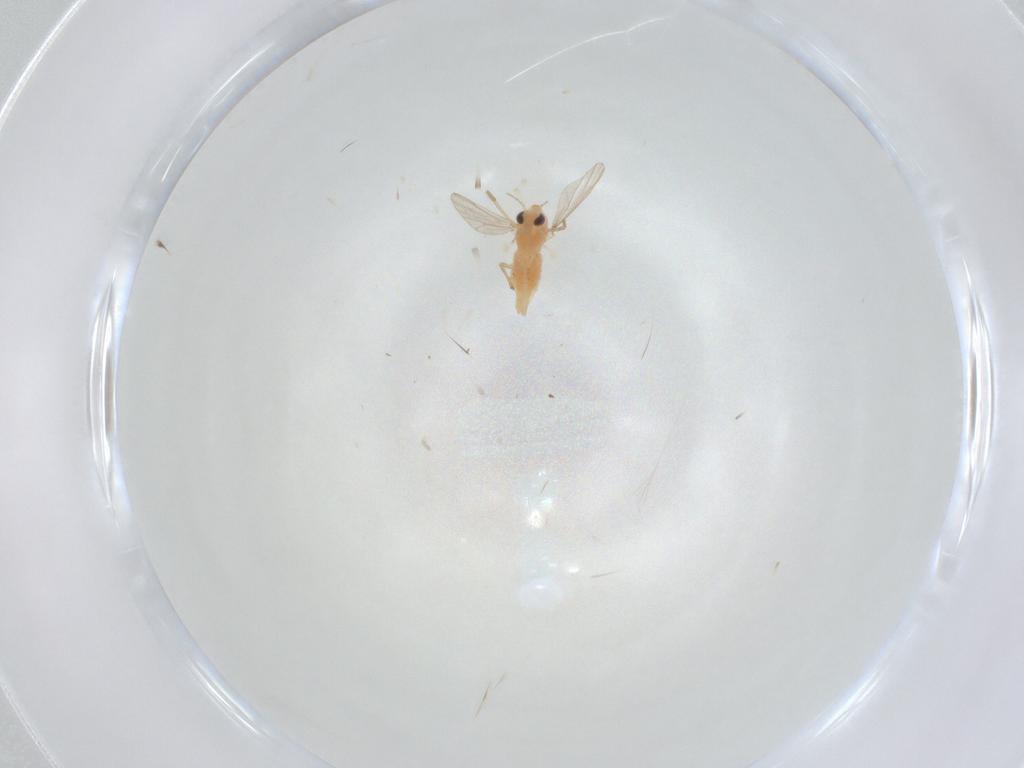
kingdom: Animalia
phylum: Arthropoda
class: Insecta
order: Diptera
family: Chironomidae
